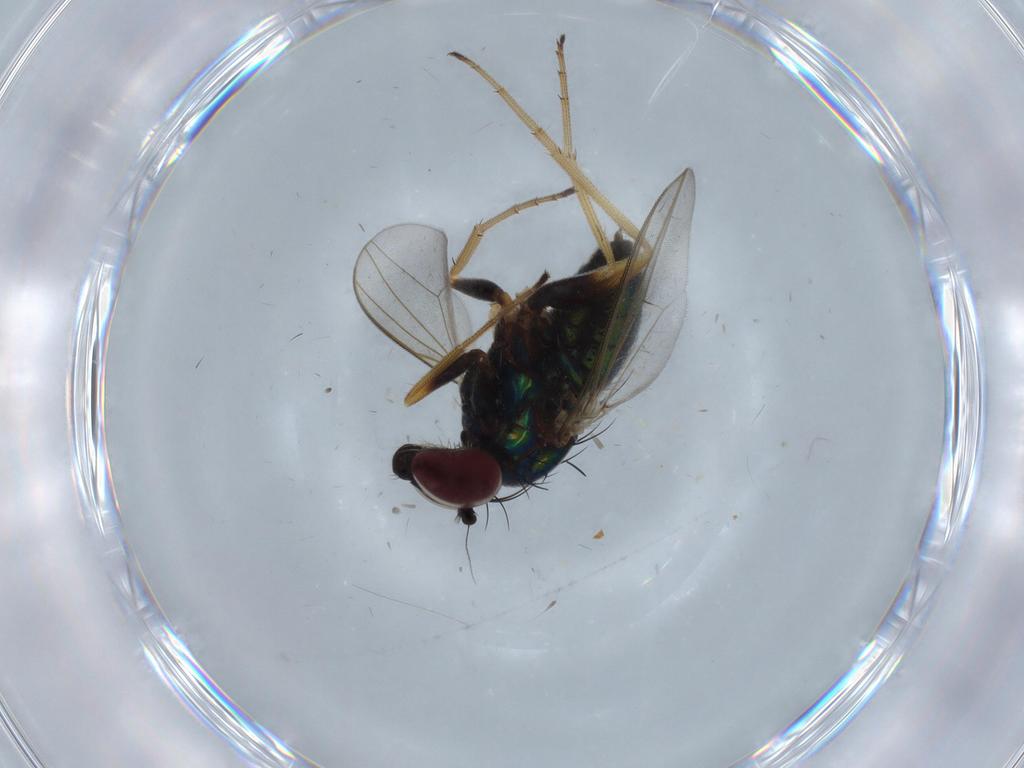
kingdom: Animalia
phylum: Arthropoda
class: Insecta
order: Diptera
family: Dolichopodidae
